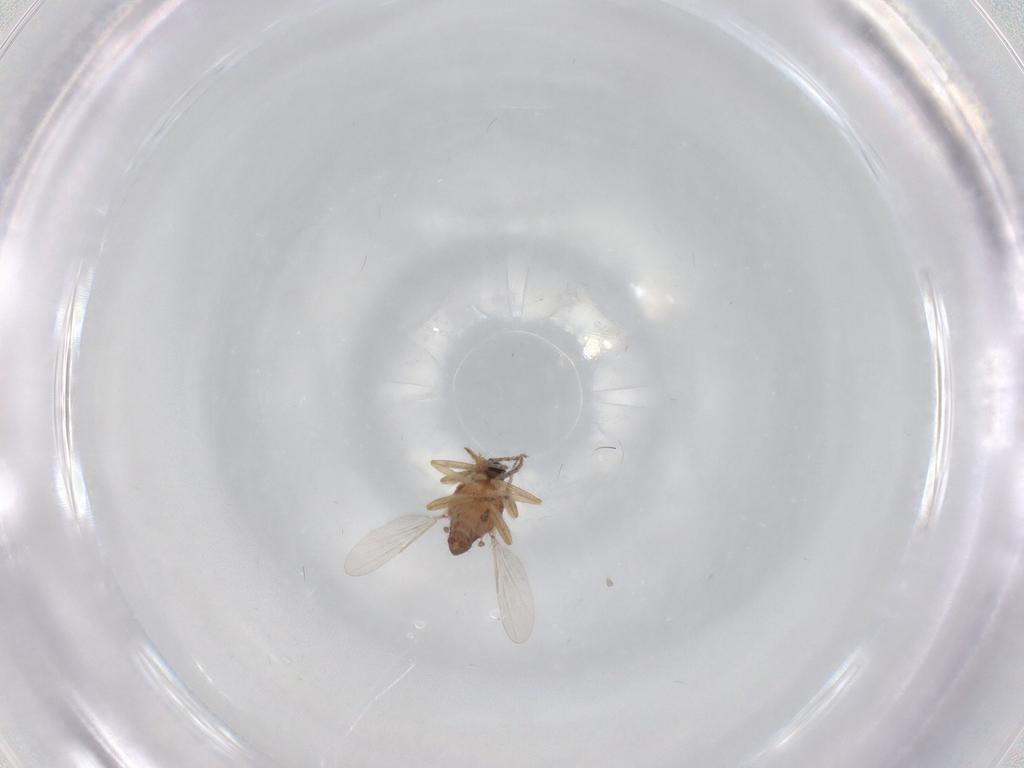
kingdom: Animalia
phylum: Arthropoda
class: Insecta
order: Diptera
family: Ceratopogonidae
